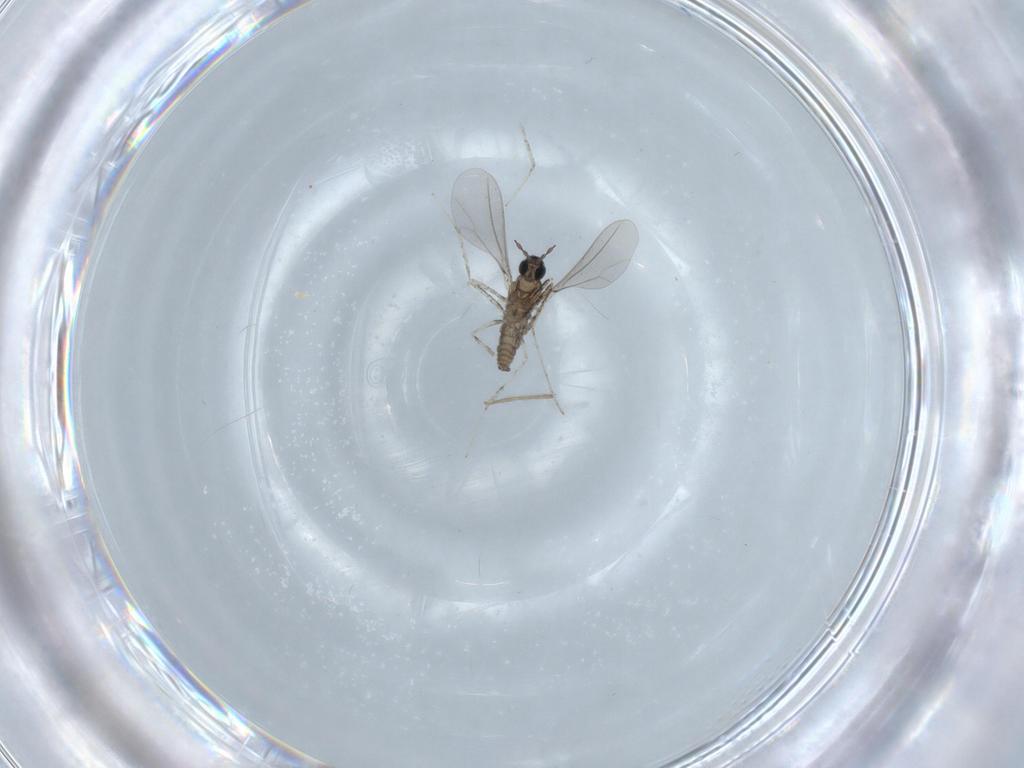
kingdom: Animalia
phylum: Arthropoda
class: Insecta
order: Diptera
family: Cecidomyiidae
